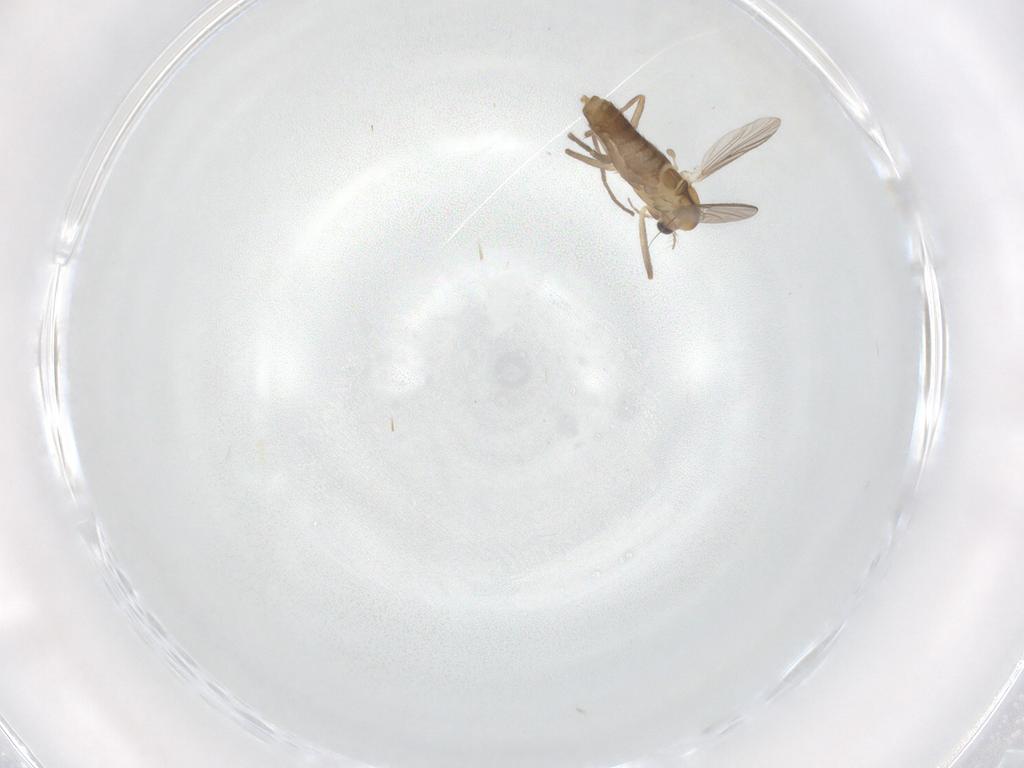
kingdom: Animalia
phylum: Arthropoda
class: Insecta
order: Diptera
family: Chironomidae
